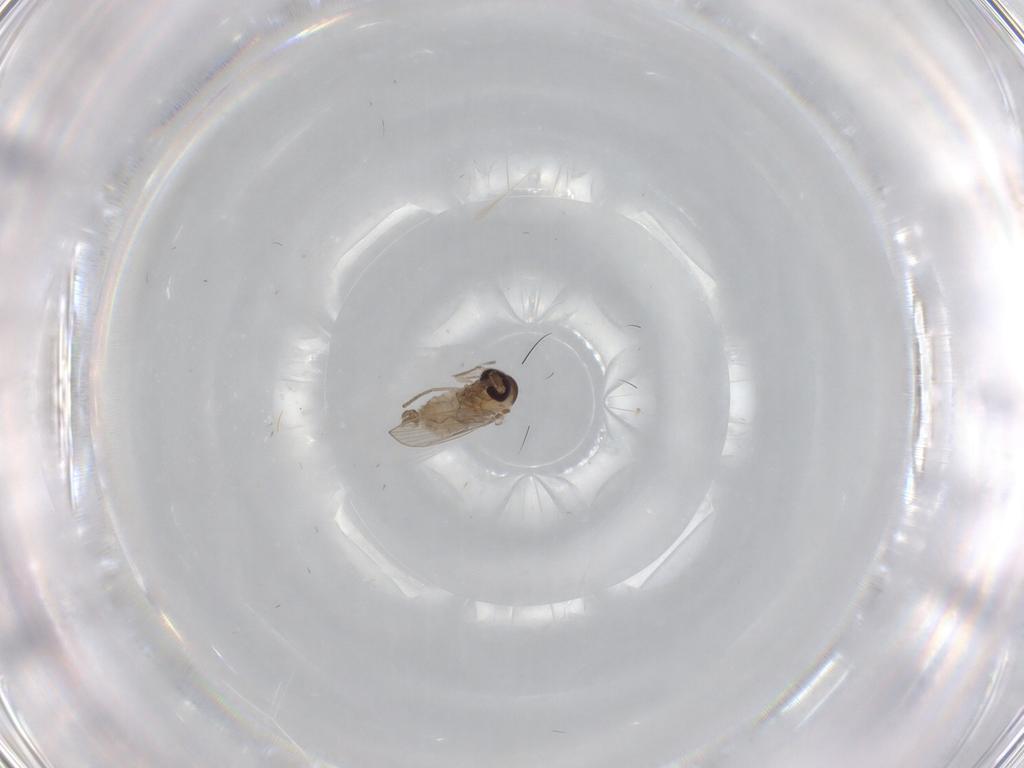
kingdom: Animalia
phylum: Arthropoda
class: Insecta
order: Diptera
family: Psychodidae
